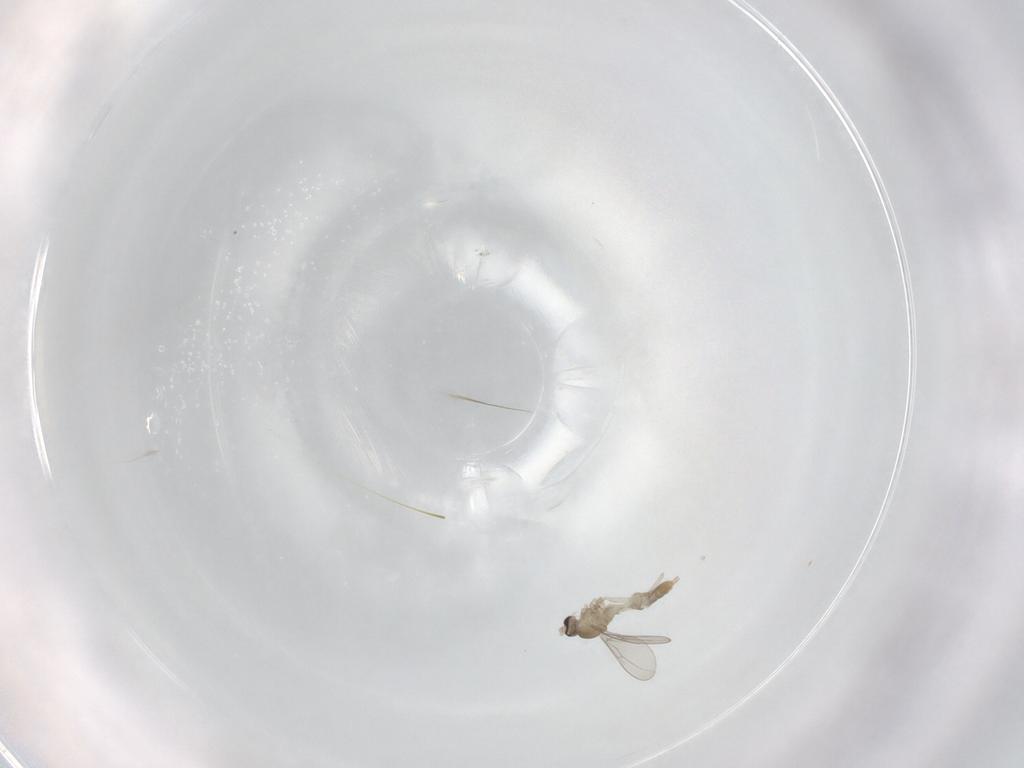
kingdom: Animalia
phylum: Arthropoda
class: Insecta
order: Diptera
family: Cecidomyiidae
